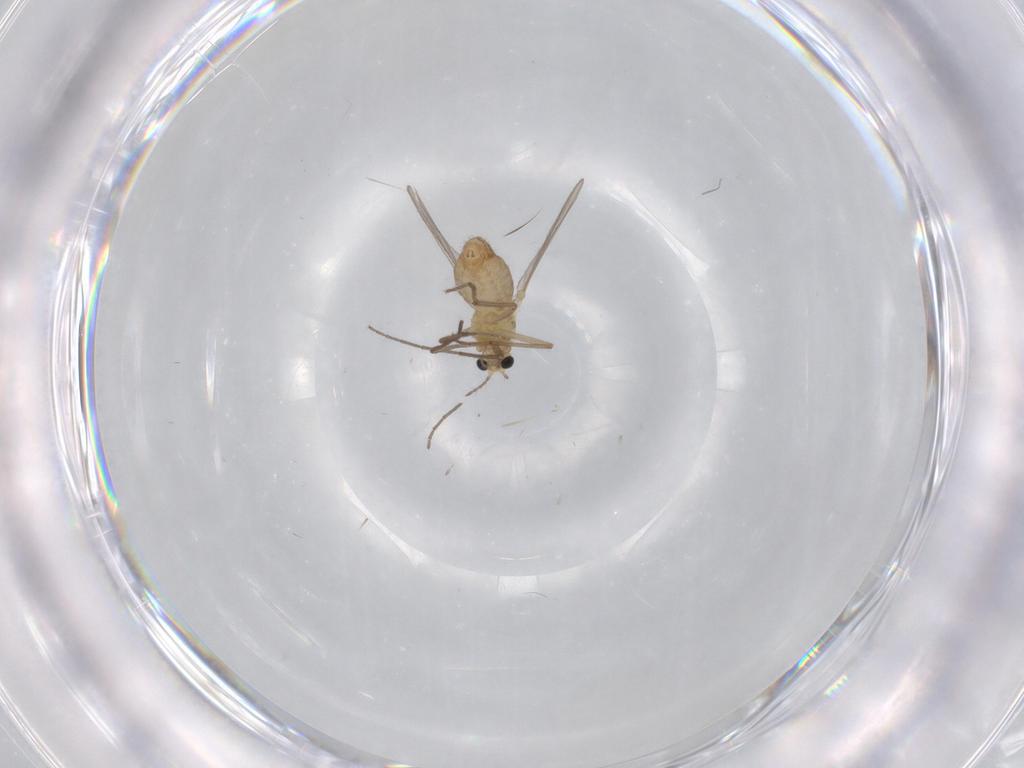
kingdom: Animalia
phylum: Arthropoda
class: Insecta
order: Diptera
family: Chironomidae
